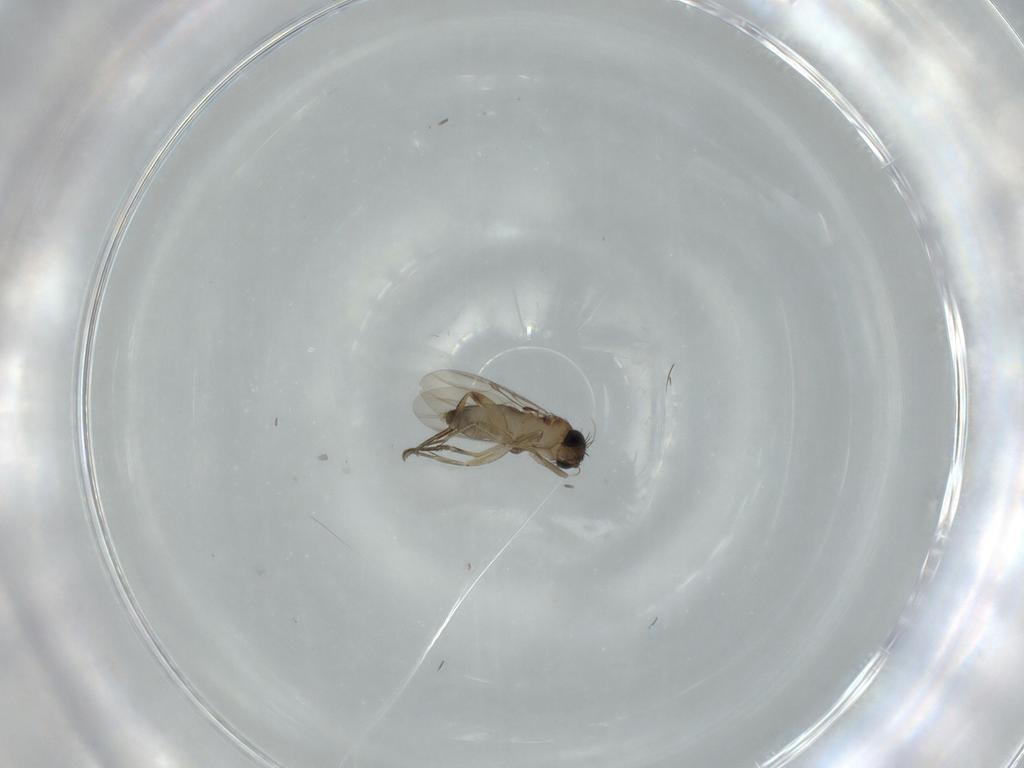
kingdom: Animalia
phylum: Arthropoda
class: Insecta
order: Diptera
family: Phoridae
